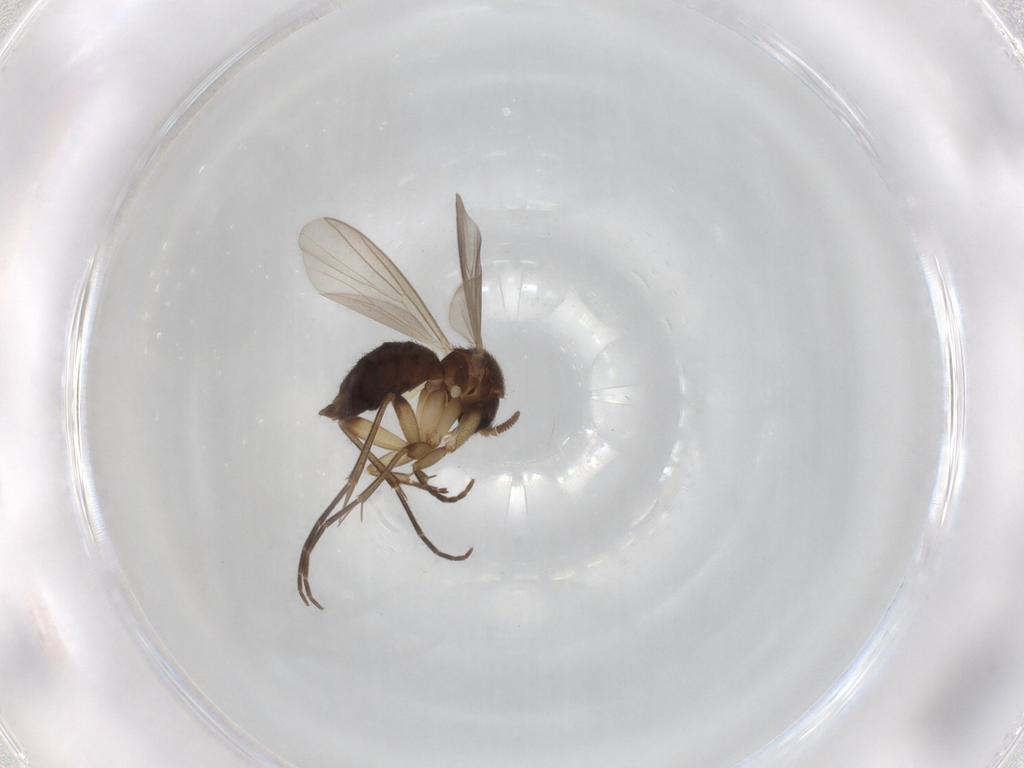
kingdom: Animalia
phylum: Arthropoda
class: Insecta
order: Diptera
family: Mycetophilidae
